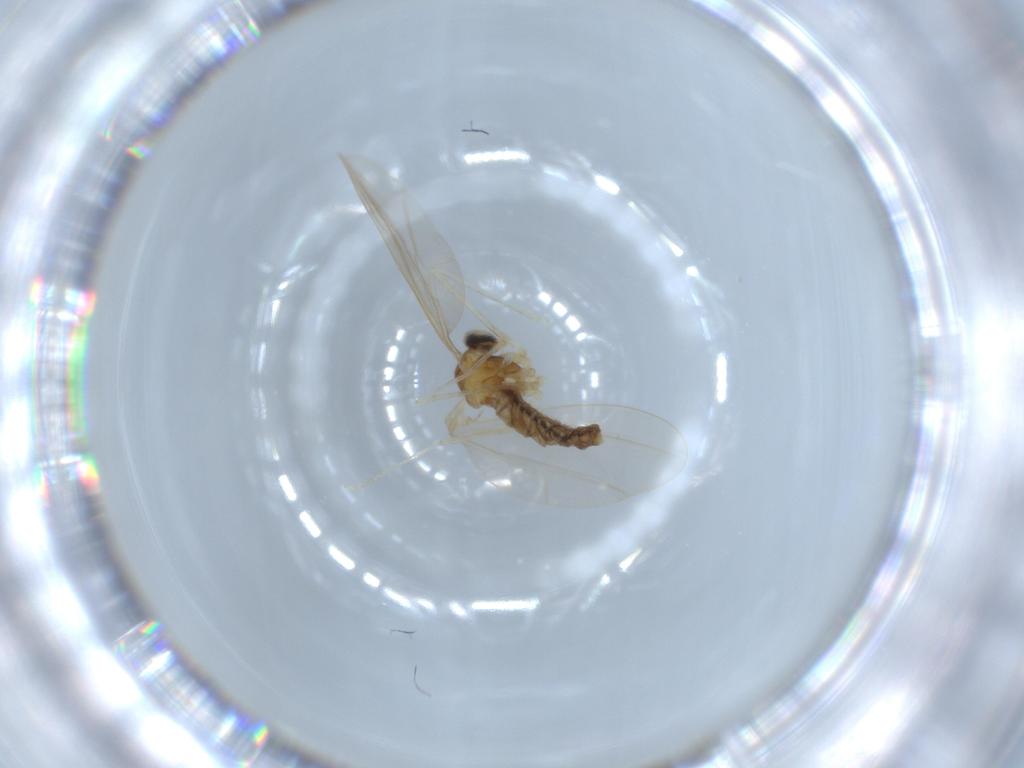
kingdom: Animalia
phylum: Arthropoda
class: Insecta
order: Diptera
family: Cecidomyiidae
